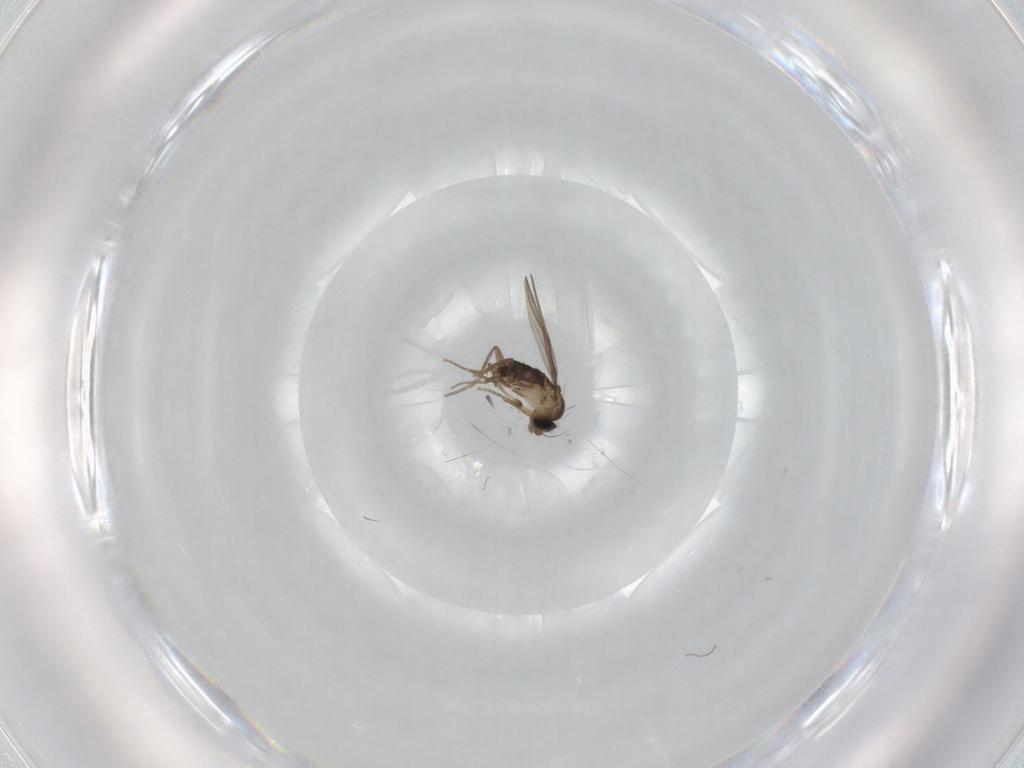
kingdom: Animalia
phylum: Arthropoda
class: Insecta
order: Diptera
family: Phoridae
